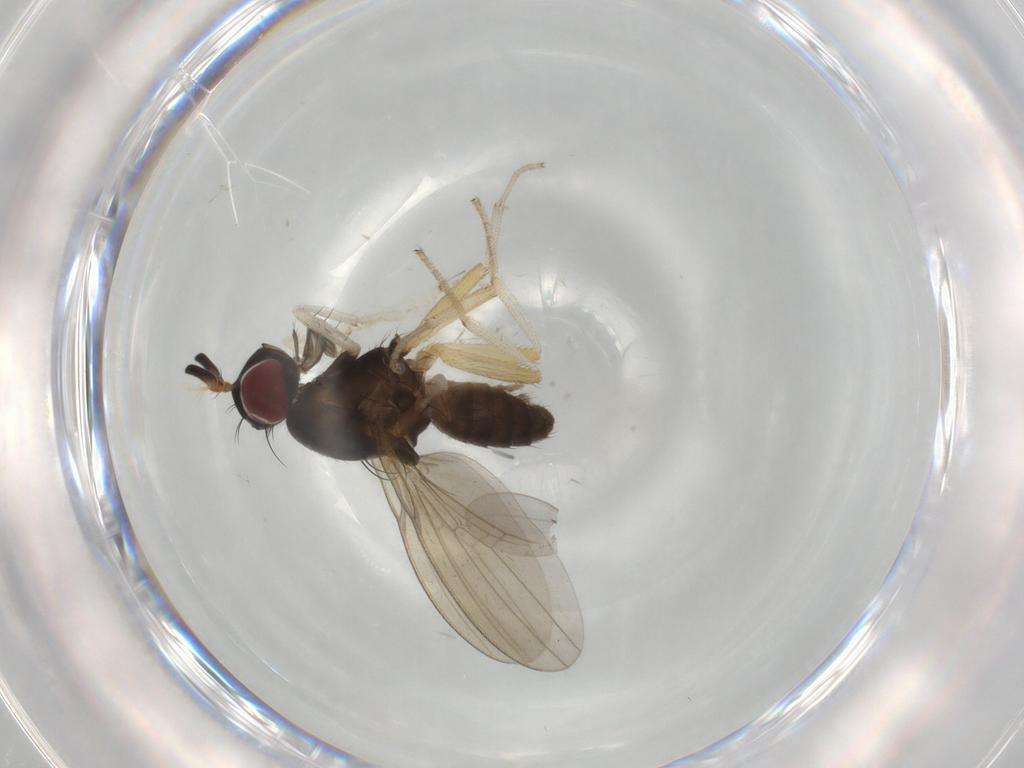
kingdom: Animalia
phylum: Arthropoda
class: Insecta
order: Diptera
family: Lauxaniidae
